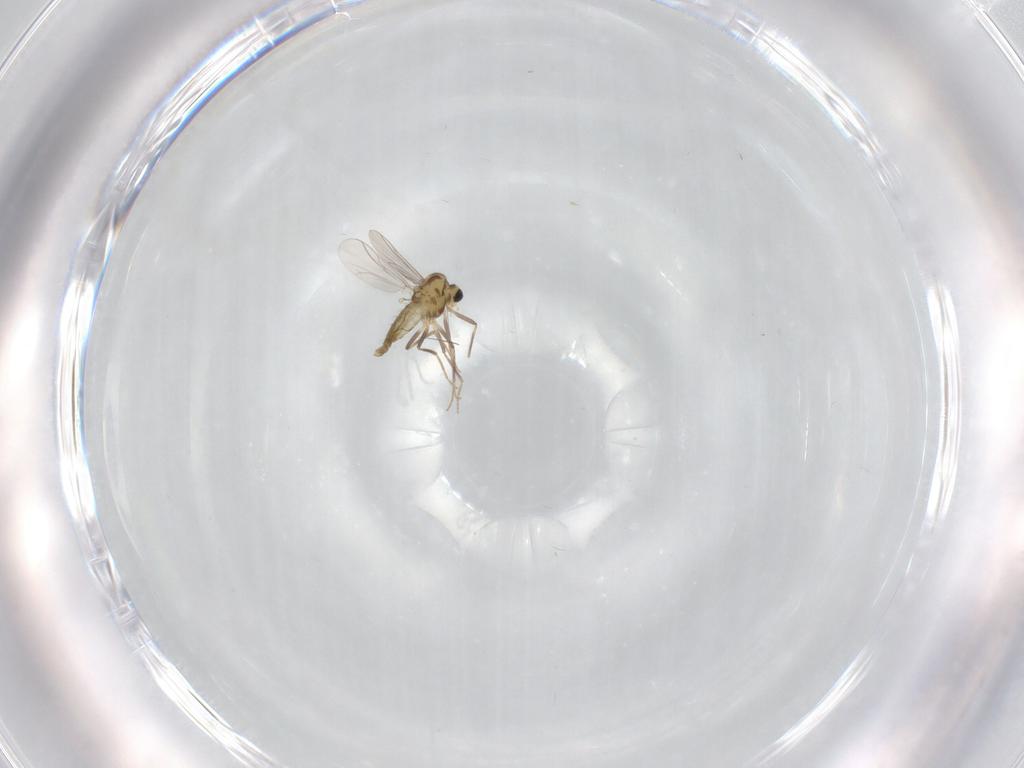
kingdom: Animalia
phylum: Arthropoda
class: Insecta
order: Diptera
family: Chironomidae
